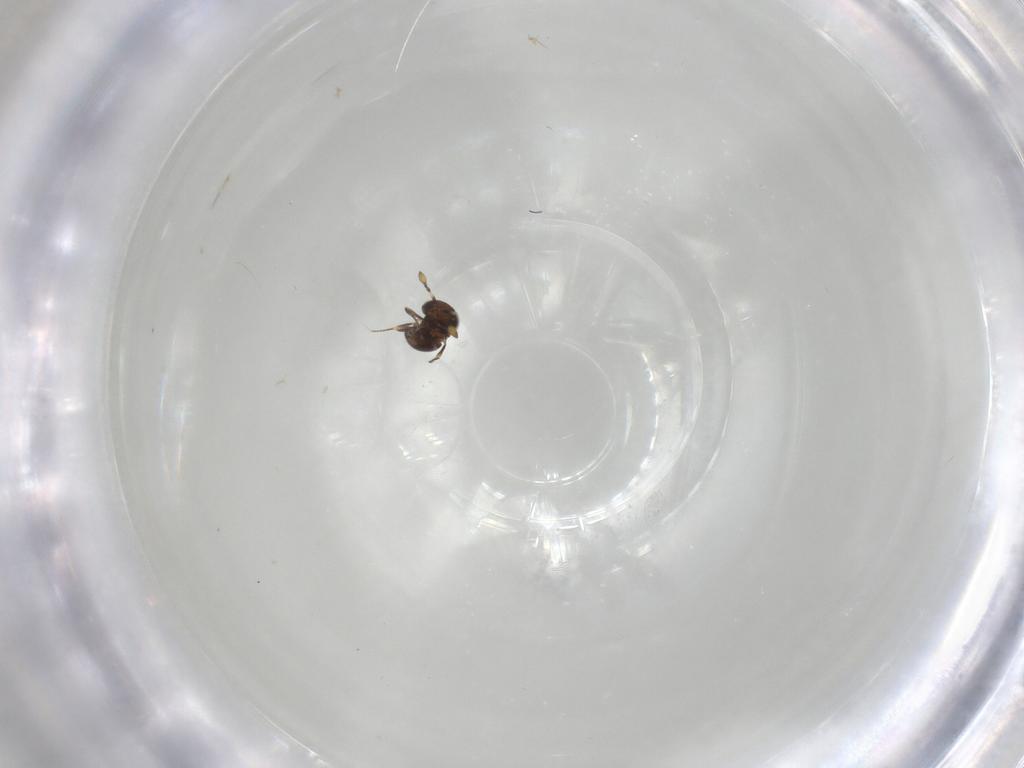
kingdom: Animalia
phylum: Arthropoda
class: Insecta
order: Hymenoptera
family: Scelionidae
